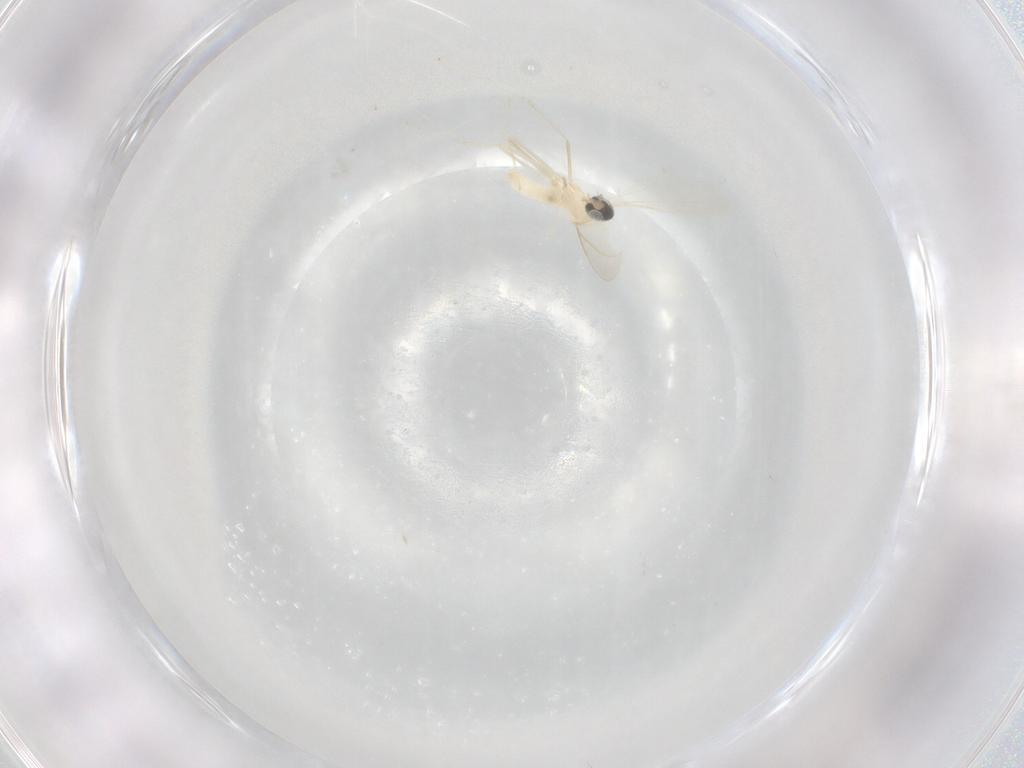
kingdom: Animalia
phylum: Arthropoda
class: Insecta
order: Diptera
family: Cecidomyiidae
